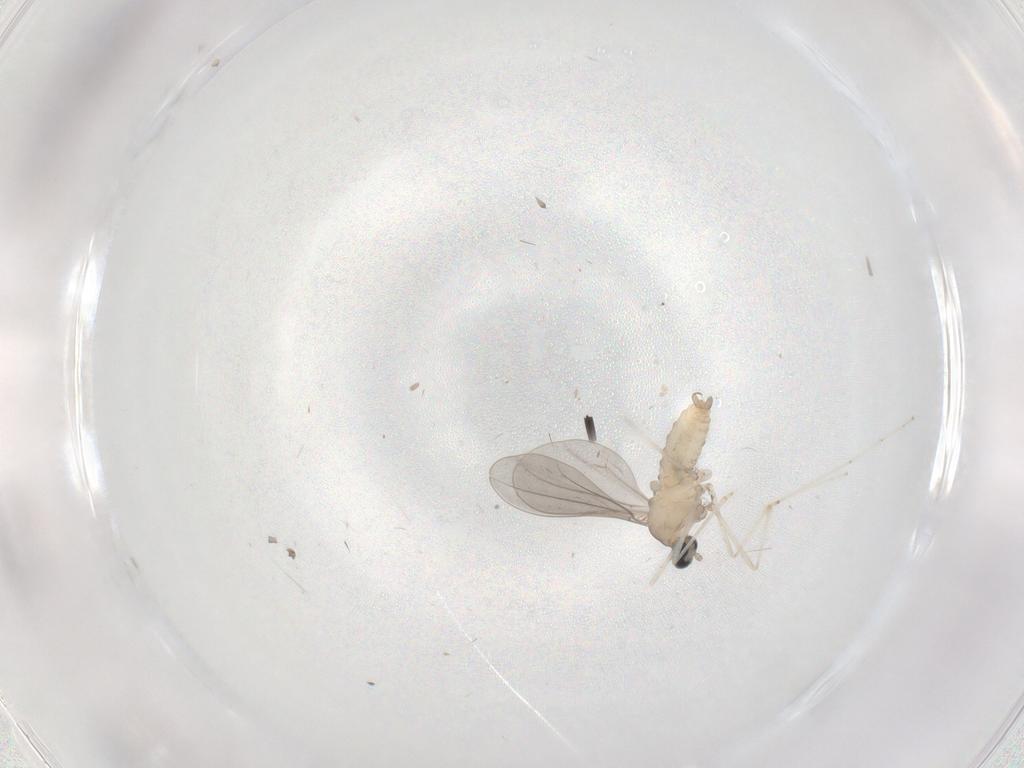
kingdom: Animalia
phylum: Arthropoda
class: Insecta
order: Diptera
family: Cecidomyiidae
